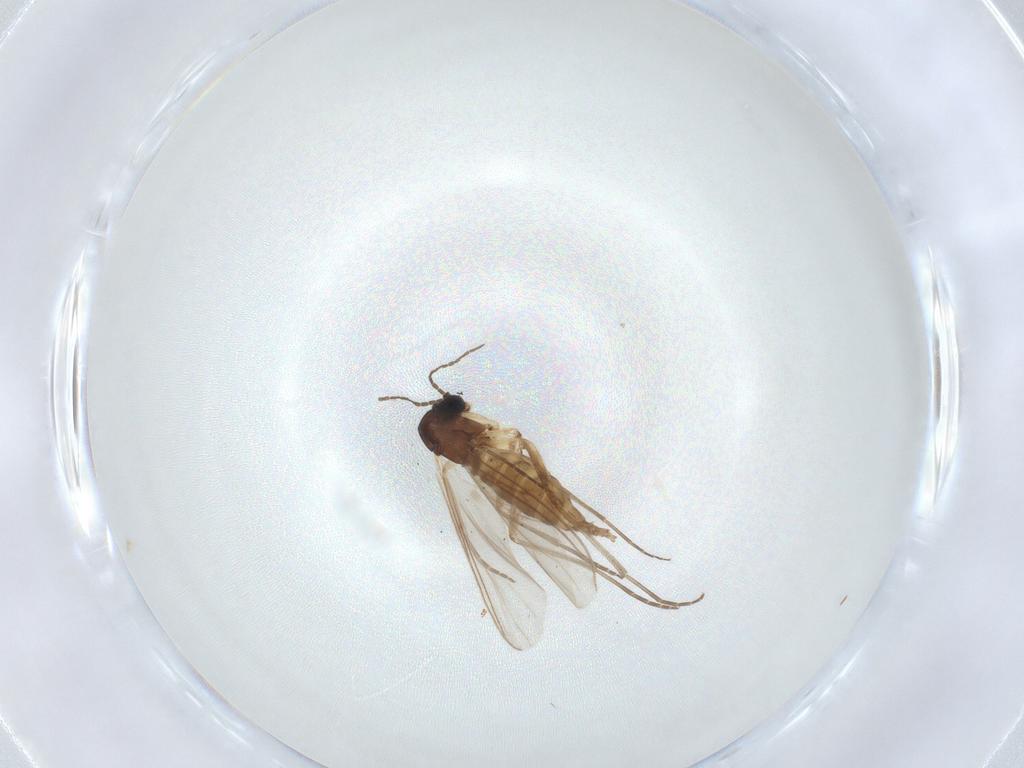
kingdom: Animalia
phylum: Arthropoda
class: Insecta
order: Diptera
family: Sciaridae
